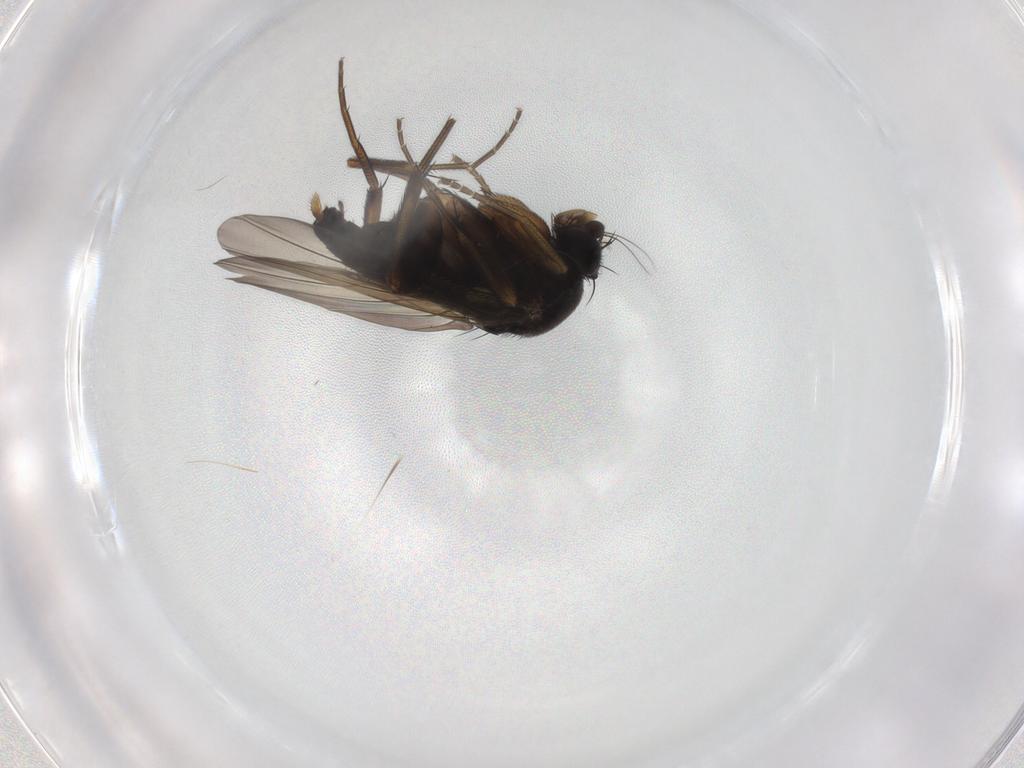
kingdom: Animalia
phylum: Arthropoda
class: Insecta
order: Diptera
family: Phoridae
